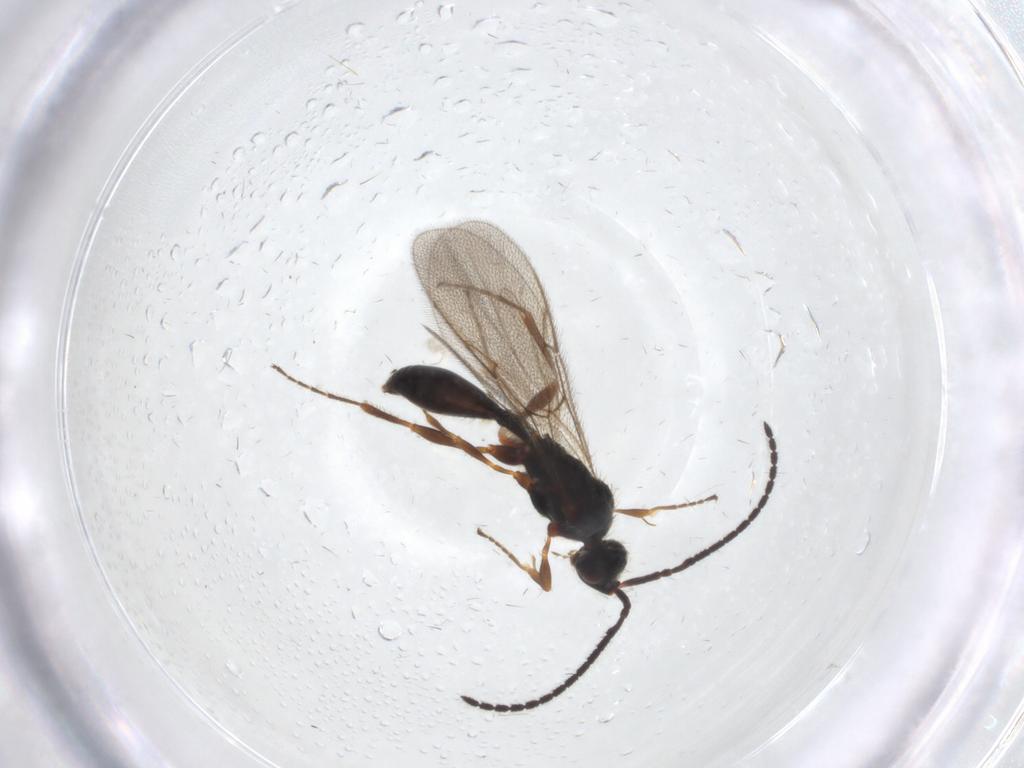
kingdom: Animalia
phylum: Arthropoda
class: Insecta
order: Hymenoptera
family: Diapriidae
